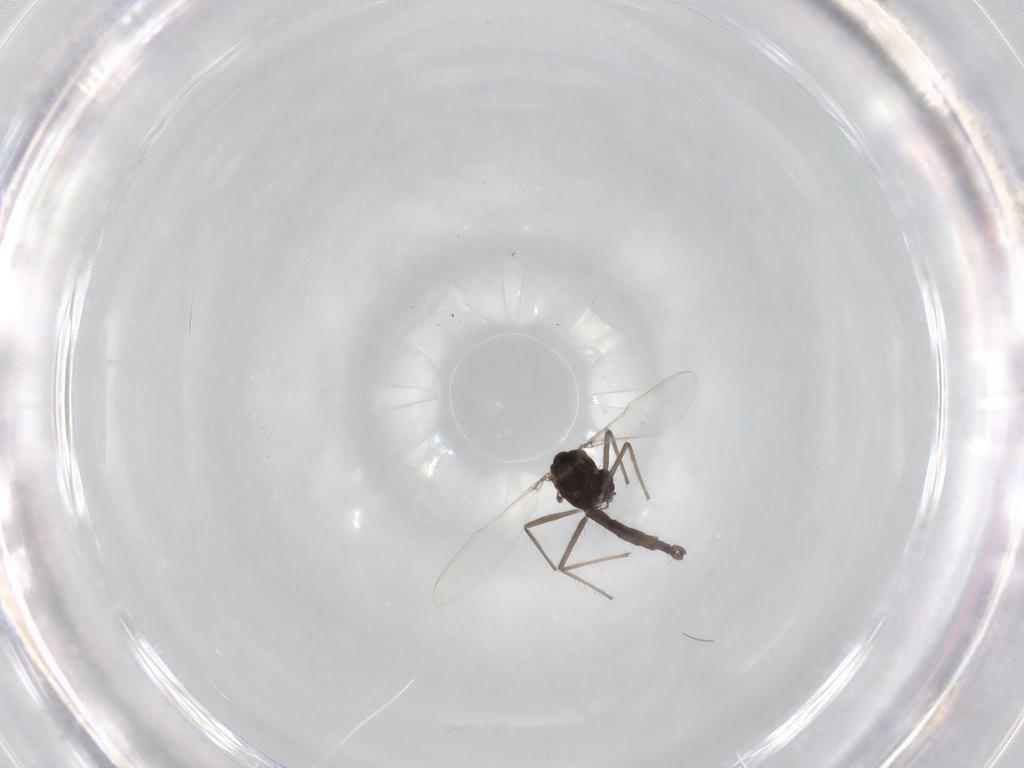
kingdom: Animalia
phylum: Arthropoda
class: Insecta
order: Diptera
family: Chironomidae
